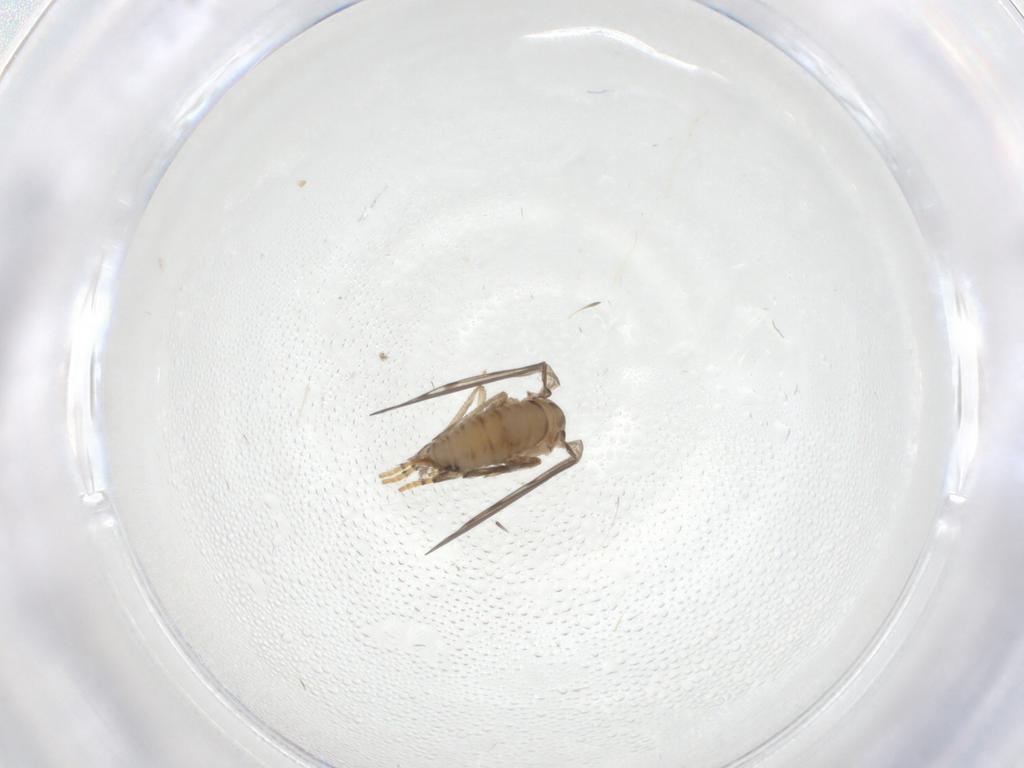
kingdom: Animalia
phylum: Arthropoda
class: Insecta
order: Diptera
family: Psychodidae
